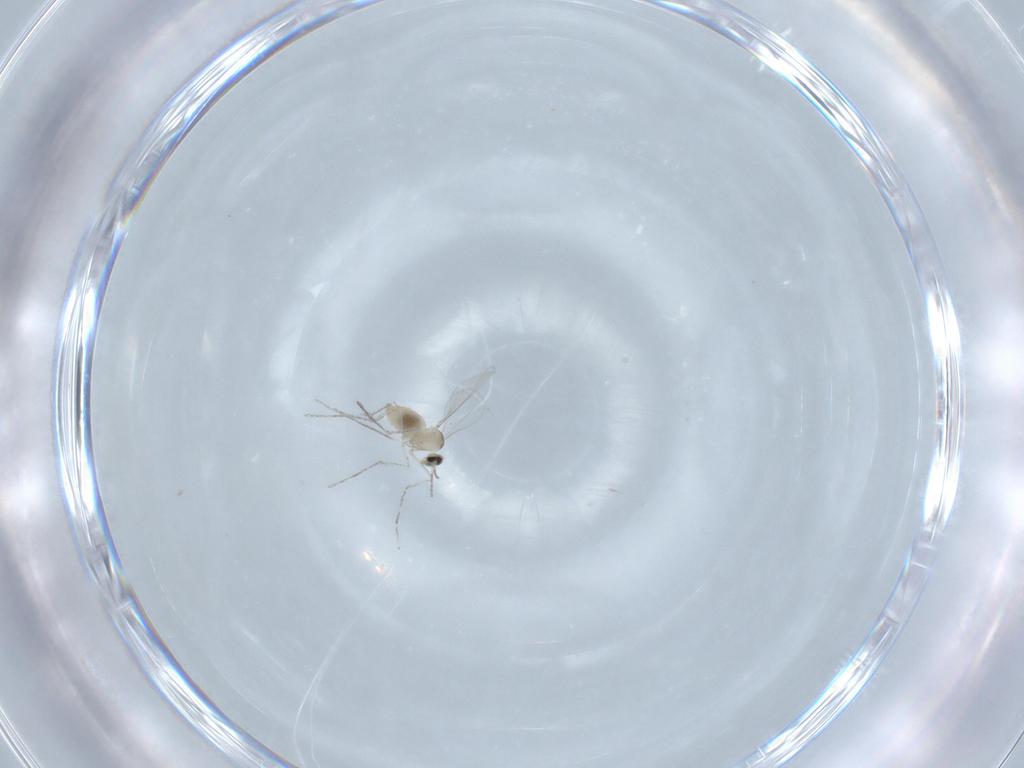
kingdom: Animalia
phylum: Arthropoda
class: Insecta
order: Diptera
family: Cecidomyiidae
